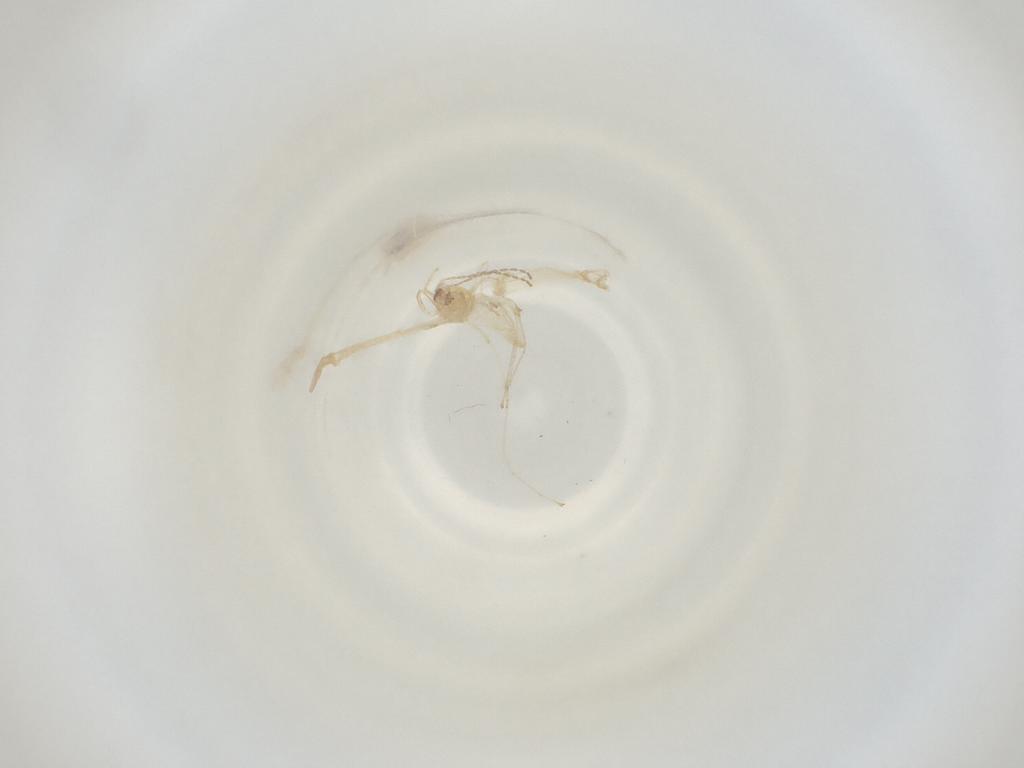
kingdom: Animalia
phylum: Arthropoda
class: Insecta
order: Diptera
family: Cecidomyiidae
